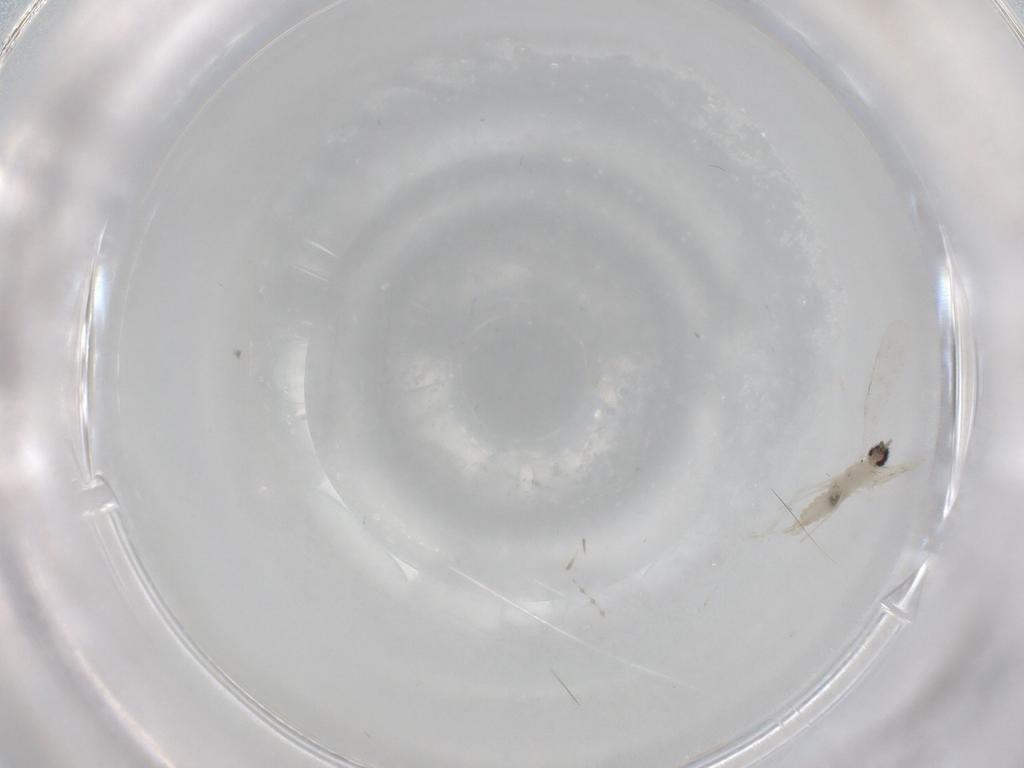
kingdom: Animalia
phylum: Arthropoda
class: Insecta
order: Diptera
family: Cecidomyiidae
